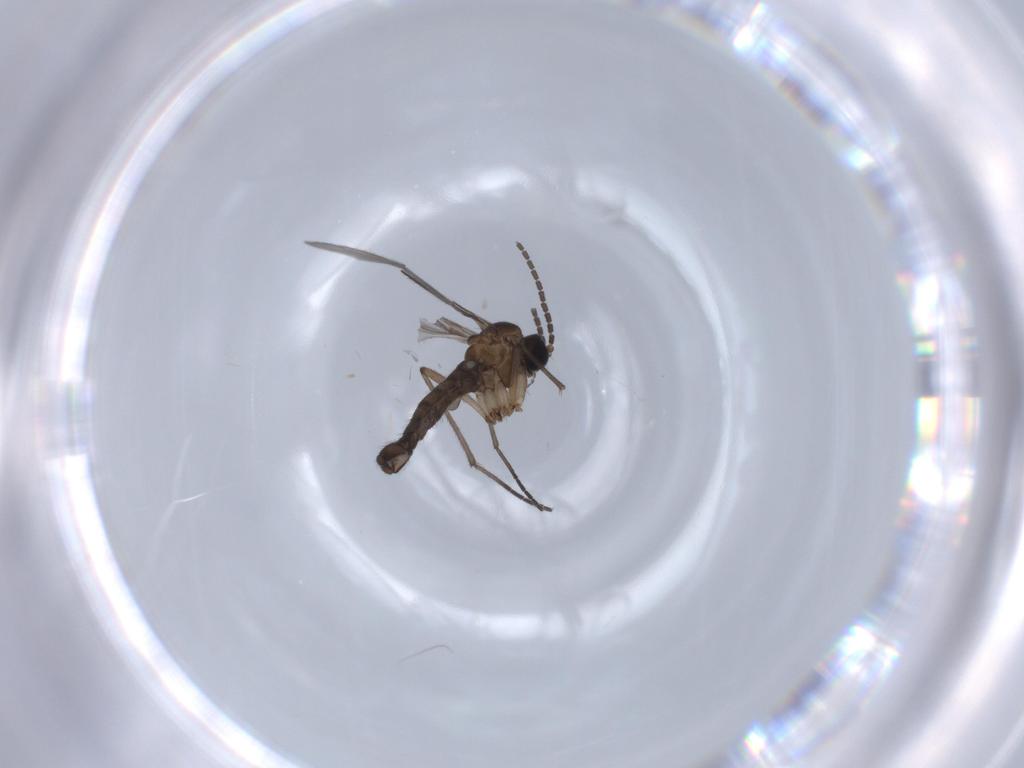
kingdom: Animalia
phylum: Arthropoda
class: Insecta
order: Diptera
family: Sciaridae
